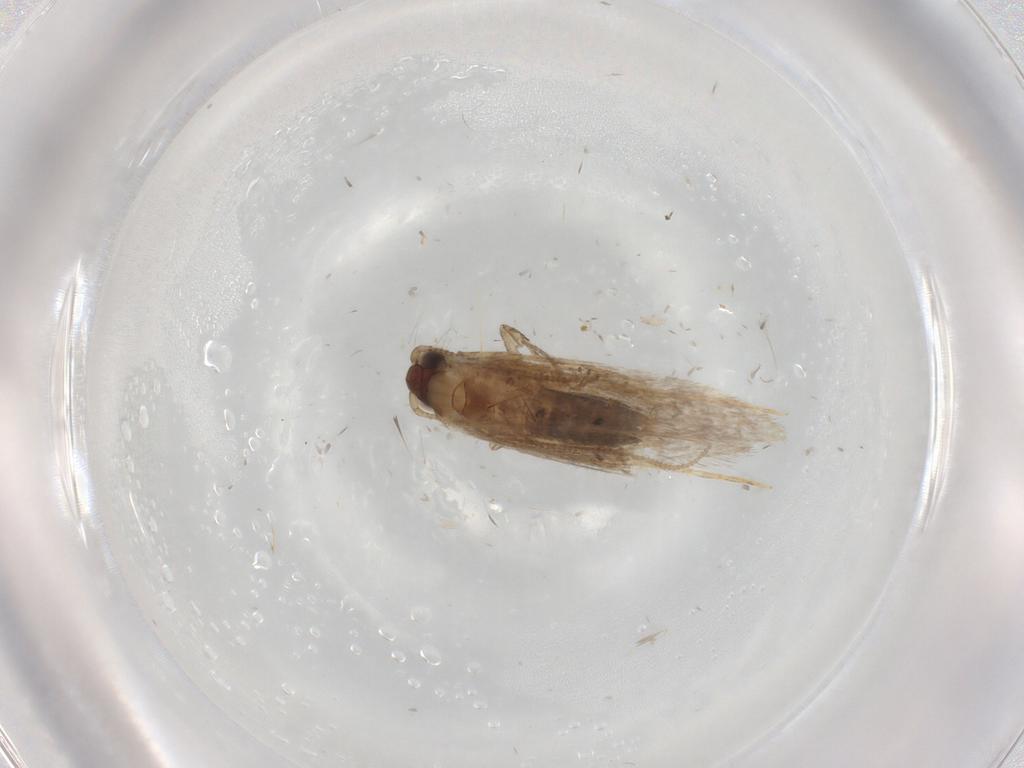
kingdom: Animalia
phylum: Arthropoda
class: Insecta
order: Lepidoptera
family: Tineidae
